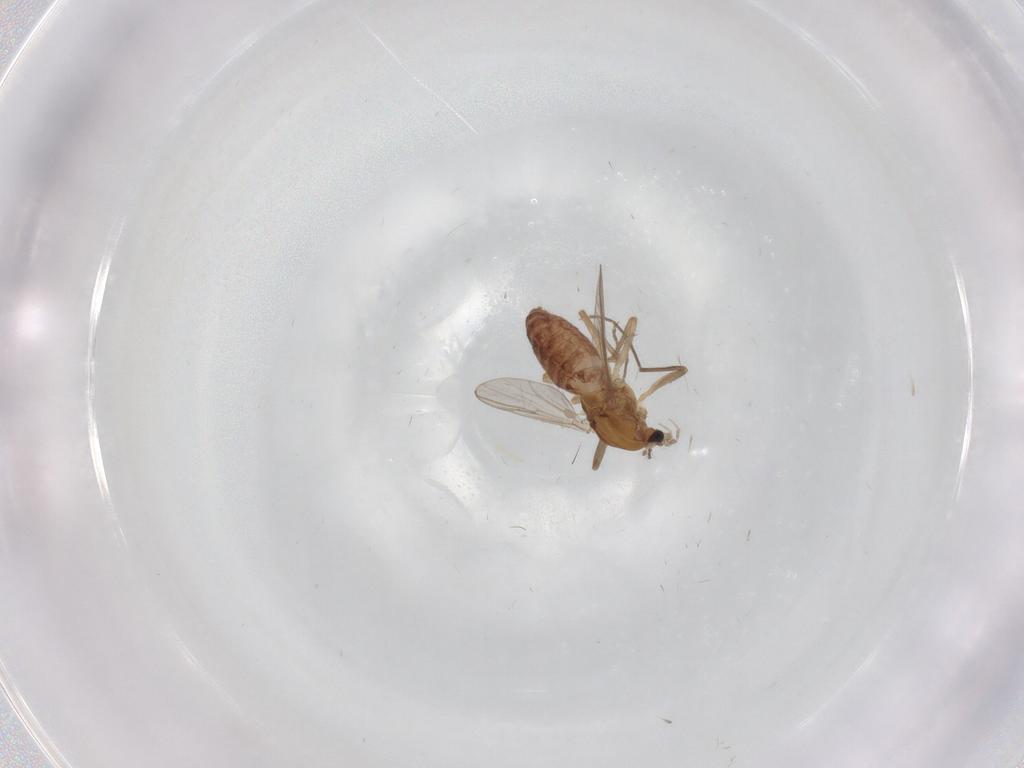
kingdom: Animalia
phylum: Arthropoda
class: Insecta
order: Diptera
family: Chironomidae
